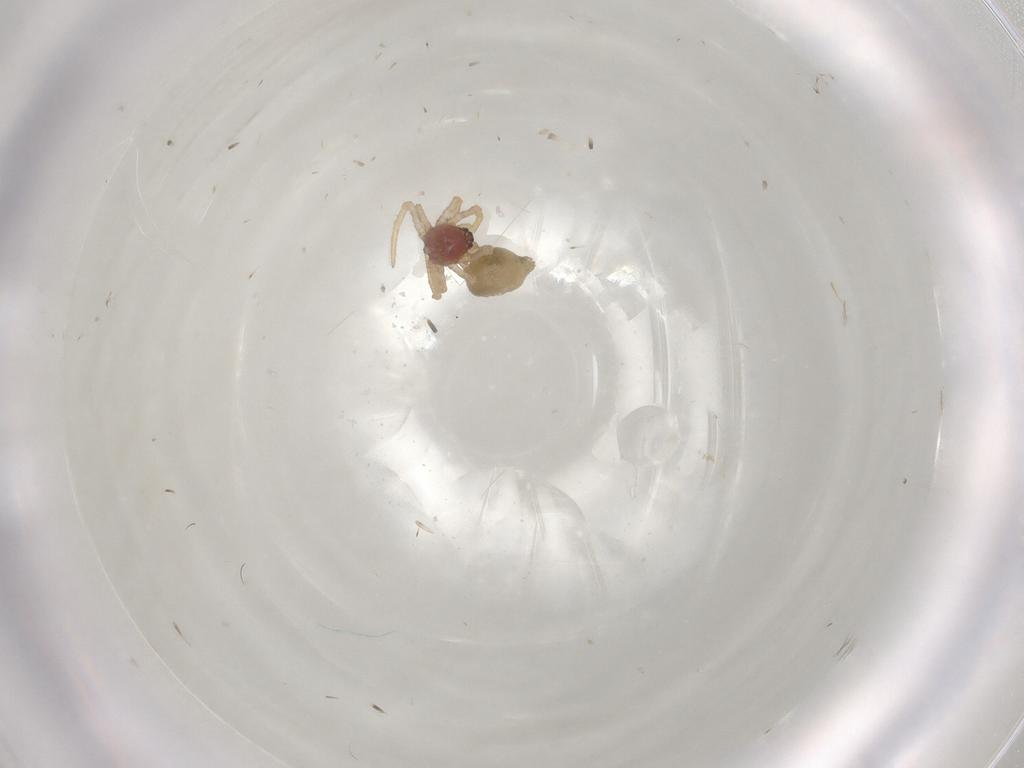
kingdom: Animalia
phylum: Arthropoda
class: Arachnida
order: Araneae
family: Theridiidae
